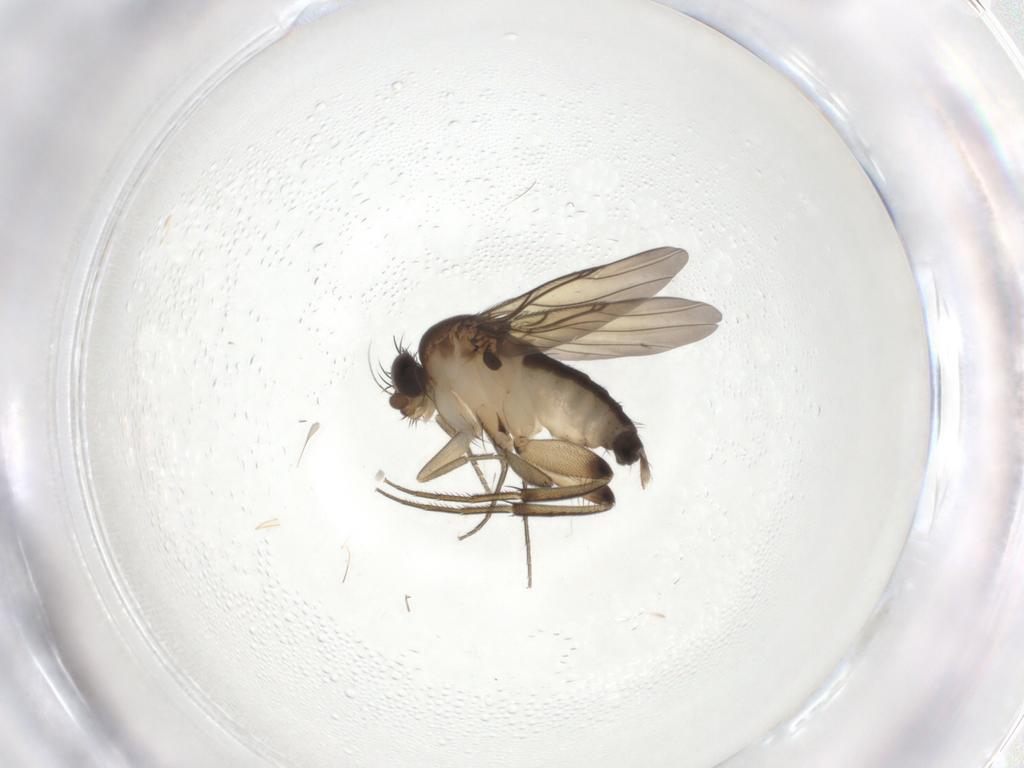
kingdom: Animalia
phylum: Arthropoda
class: Insecta
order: Diptera
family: Phoridae
